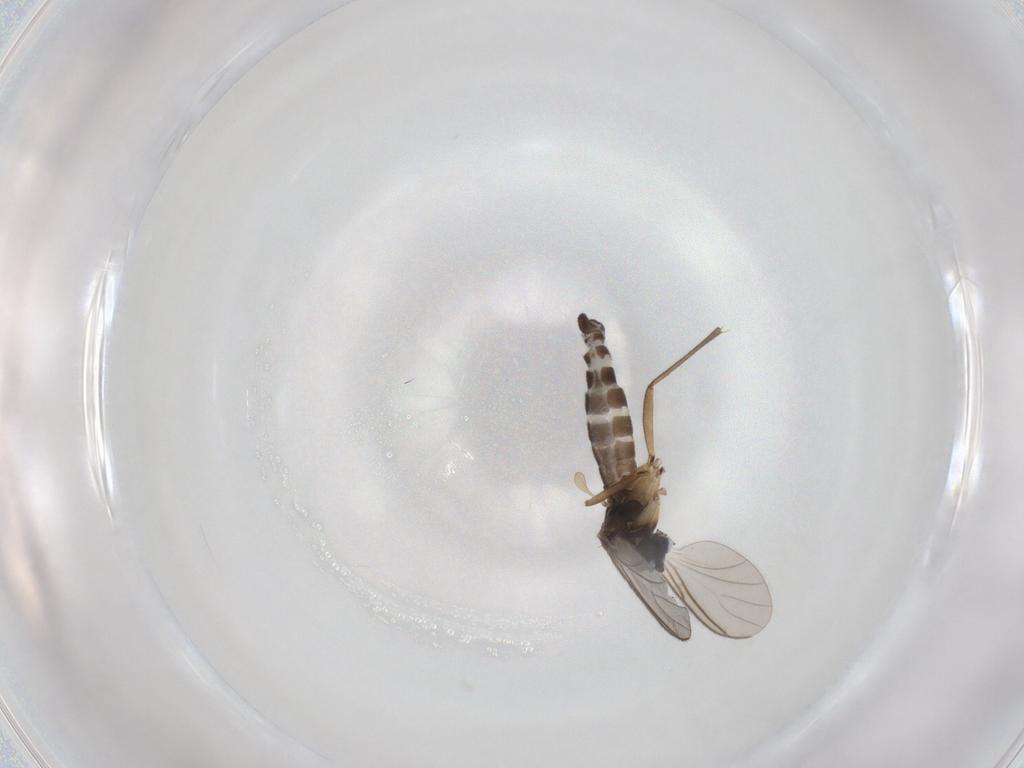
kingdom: Animalia
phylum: Arthropoda
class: Insecta
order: Diptera
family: Sciaridae
